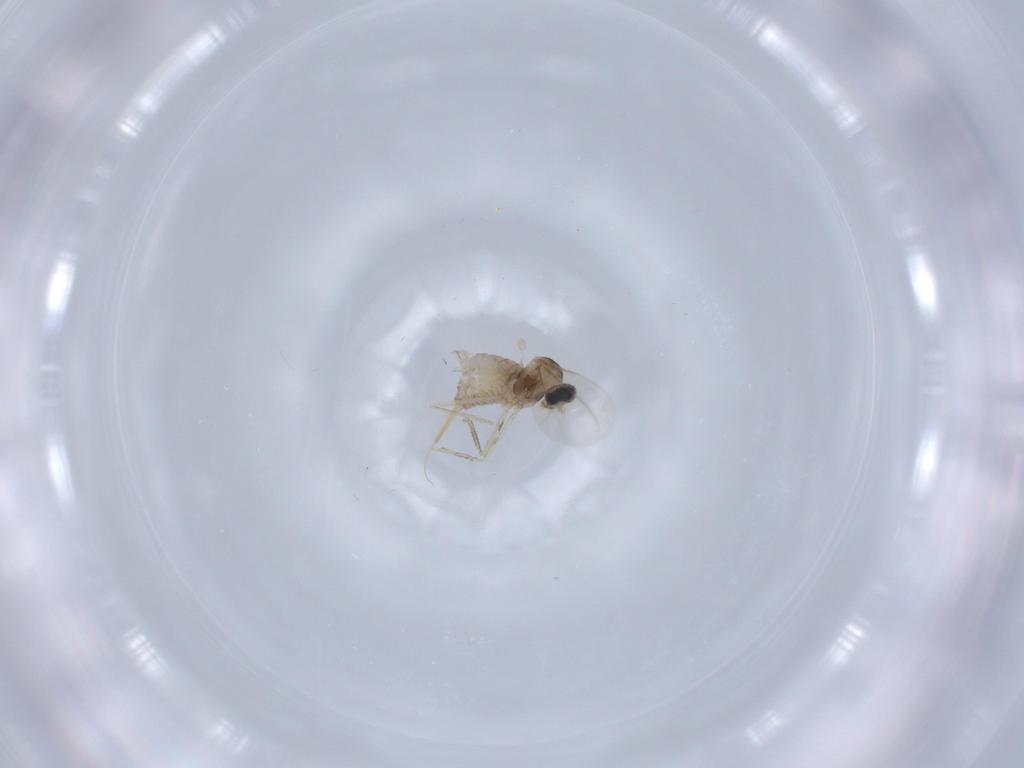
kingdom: Animalia
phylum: Arthropoda
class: Insecta
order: Diptera
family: Cecidomyiidae
